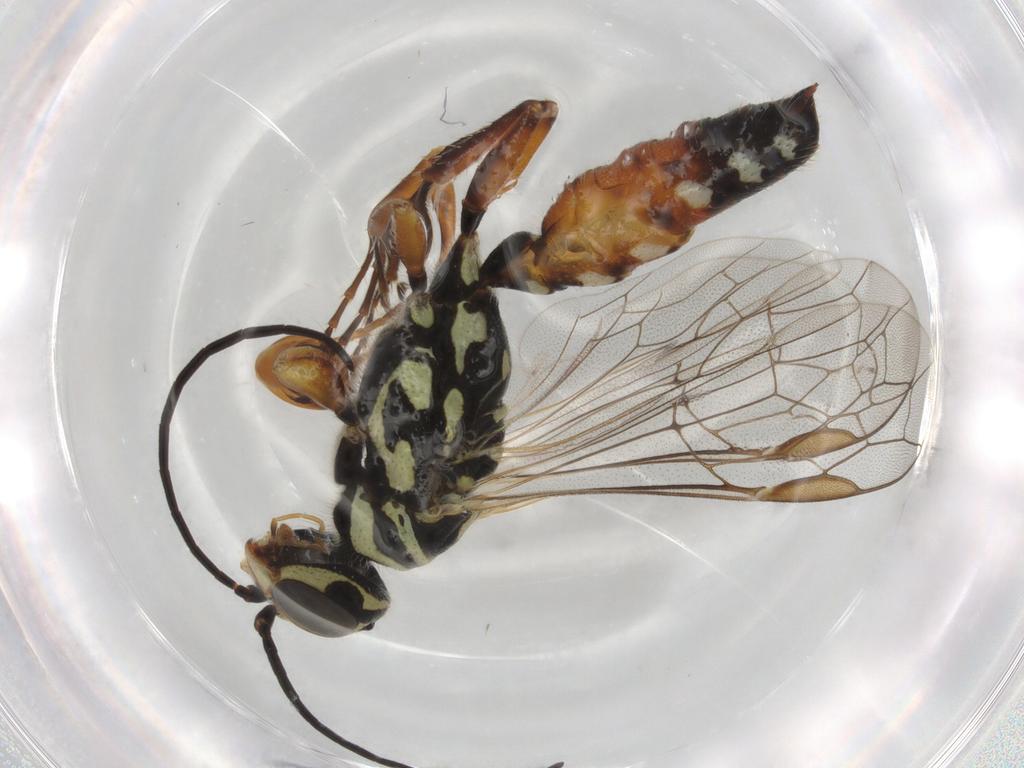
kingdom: Animalia
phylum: Arthropoda
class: Insecta
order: Hymenoptera
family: Thynnidae
